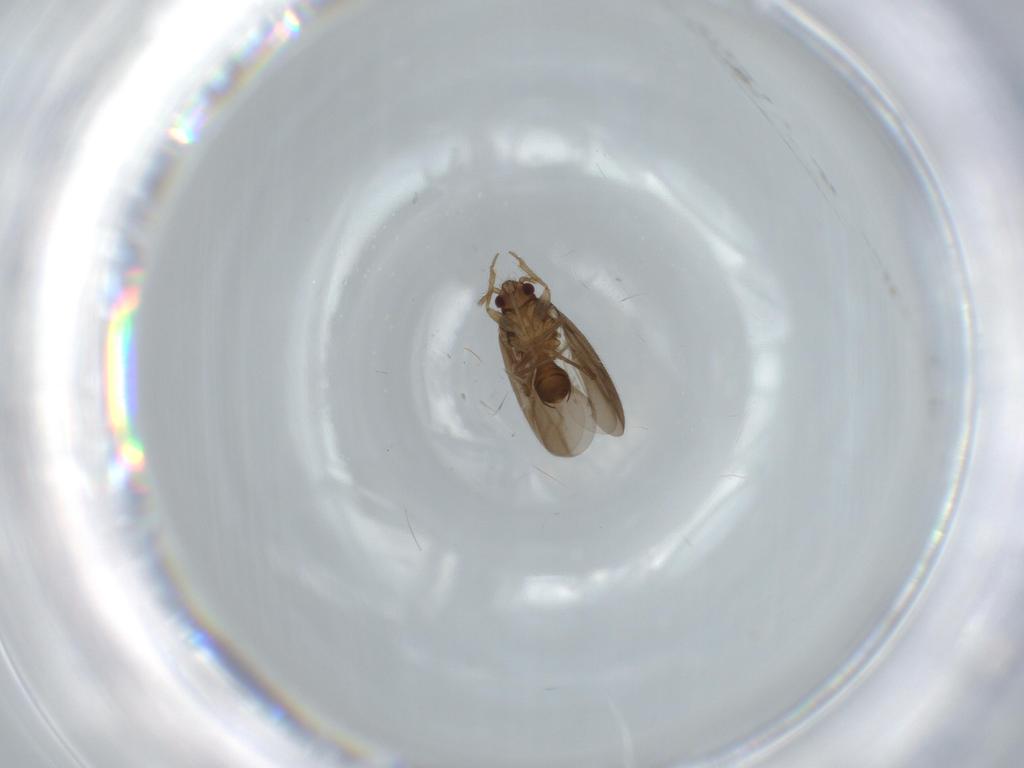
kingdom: Animalia
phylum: Arthropoda
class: Insecta
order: Hemiptera
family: Ceratocombidae
